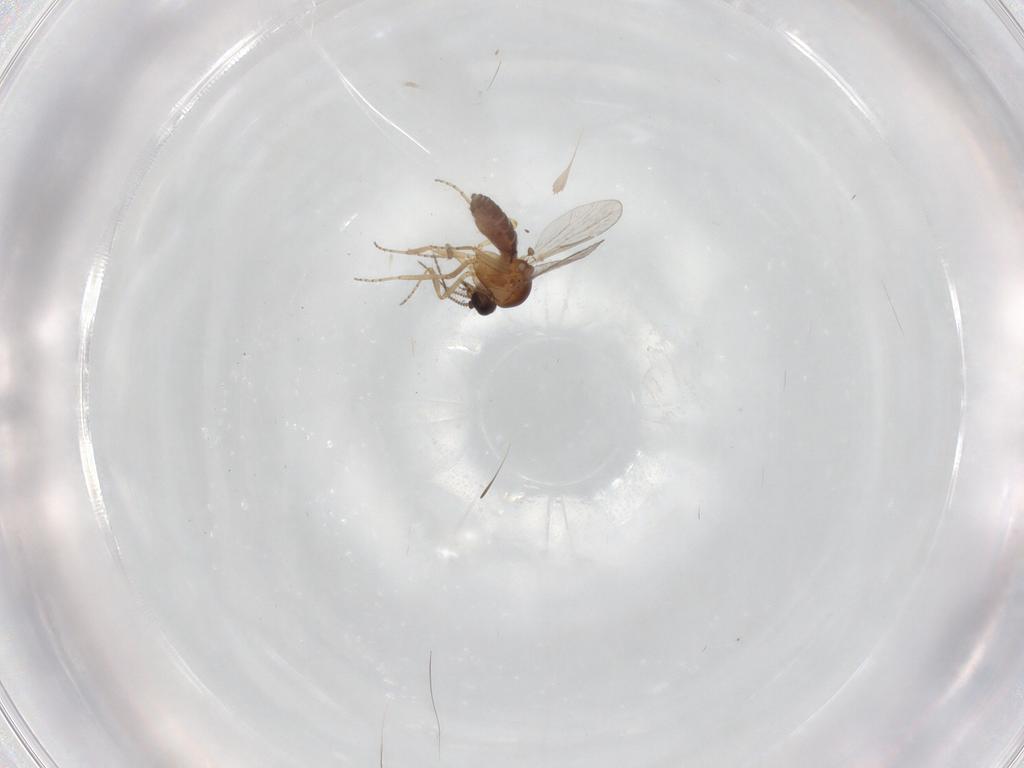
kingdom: Animalia
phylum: Arthropoda
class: Insecta
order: Diptera
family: Ceratopogonidae
